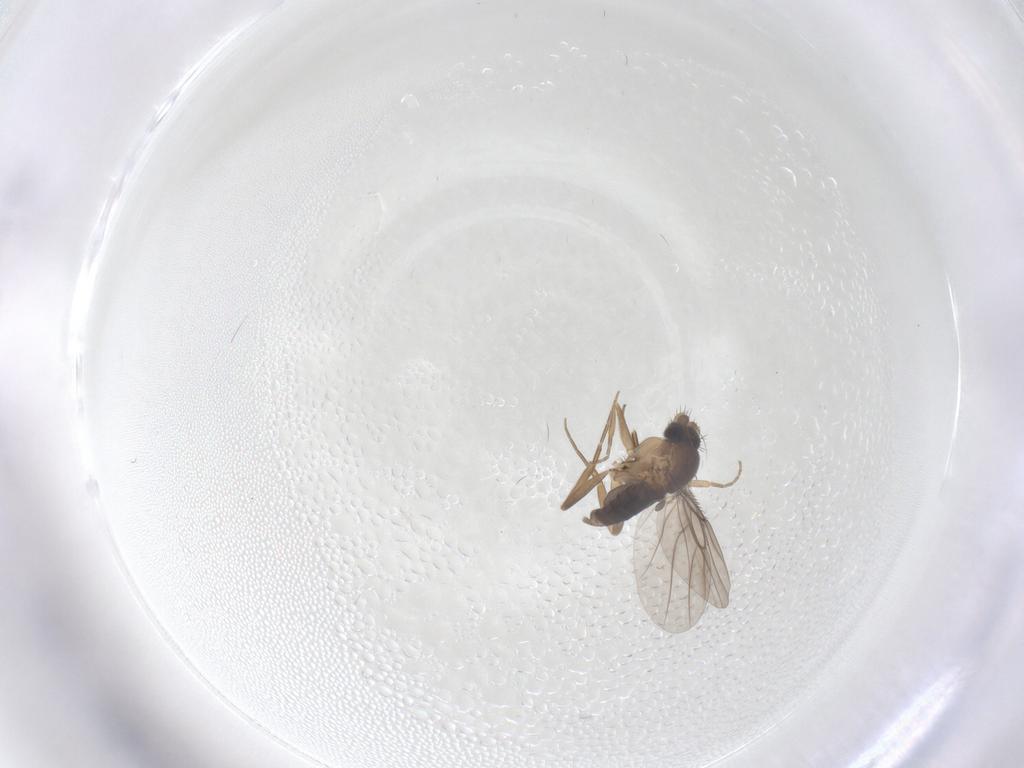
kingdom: Animalia
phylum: Arthropoda
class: Insecta
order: Diptera
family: Phoridae
